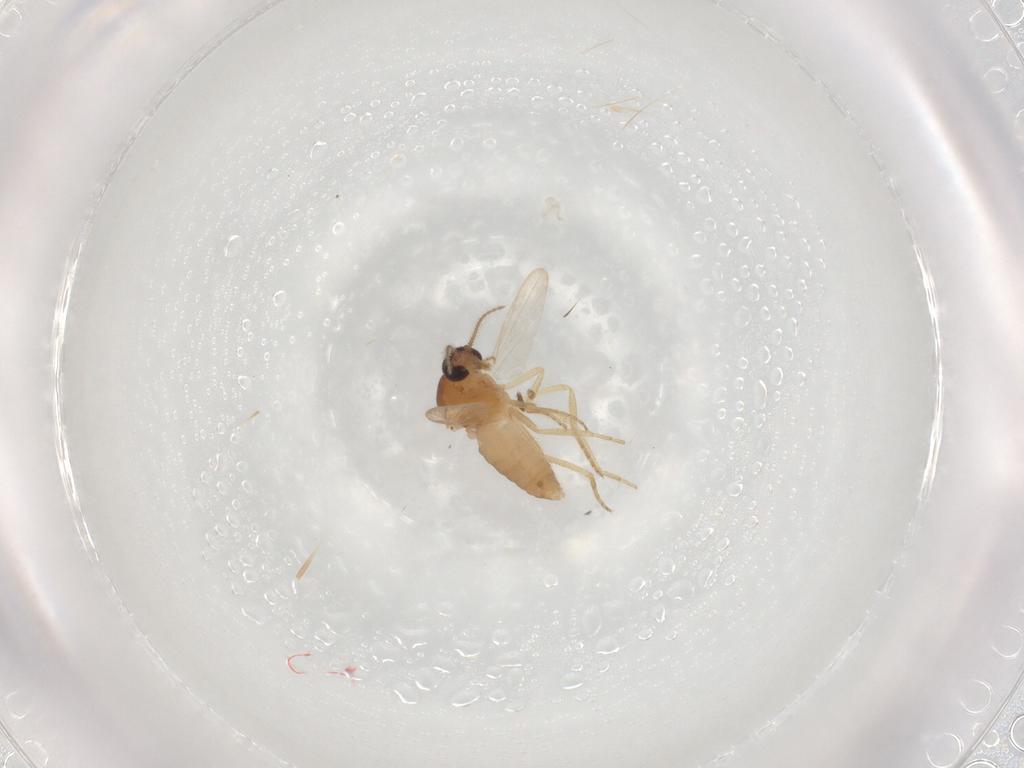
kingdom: Animalia
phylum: Arthropoda
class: Insecta
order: Diptera
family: Ceratopogonidae
